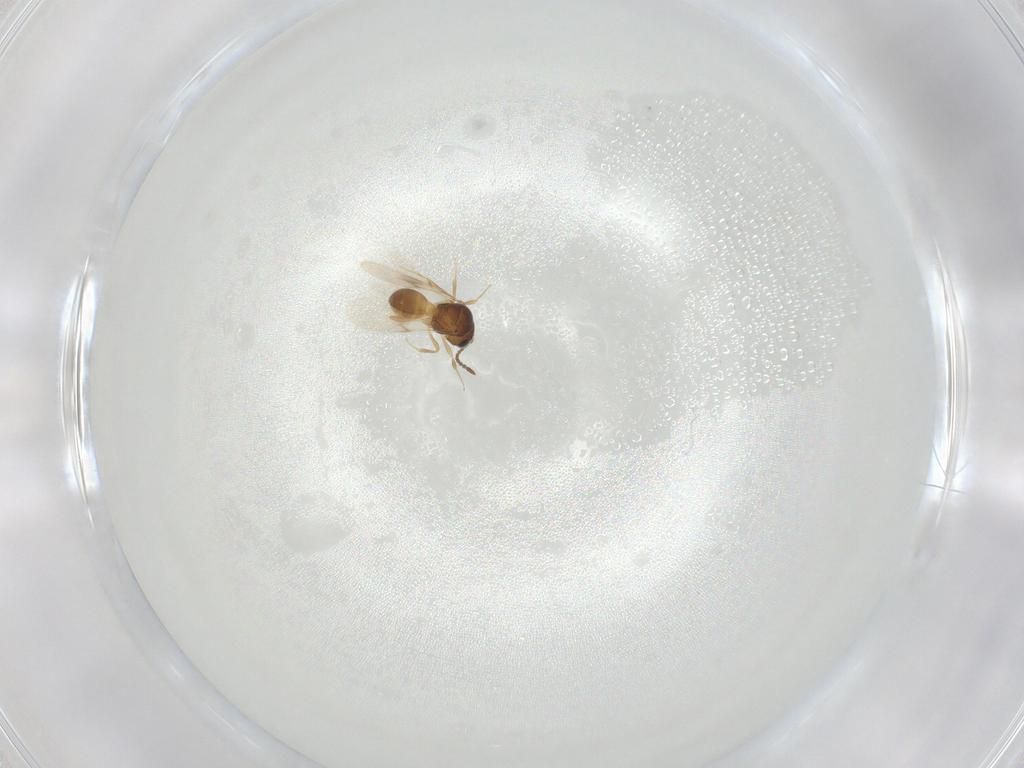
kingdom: Animalia
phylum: Arthropoda
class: Insecta
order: Hymenoptera
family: Scelionidae
